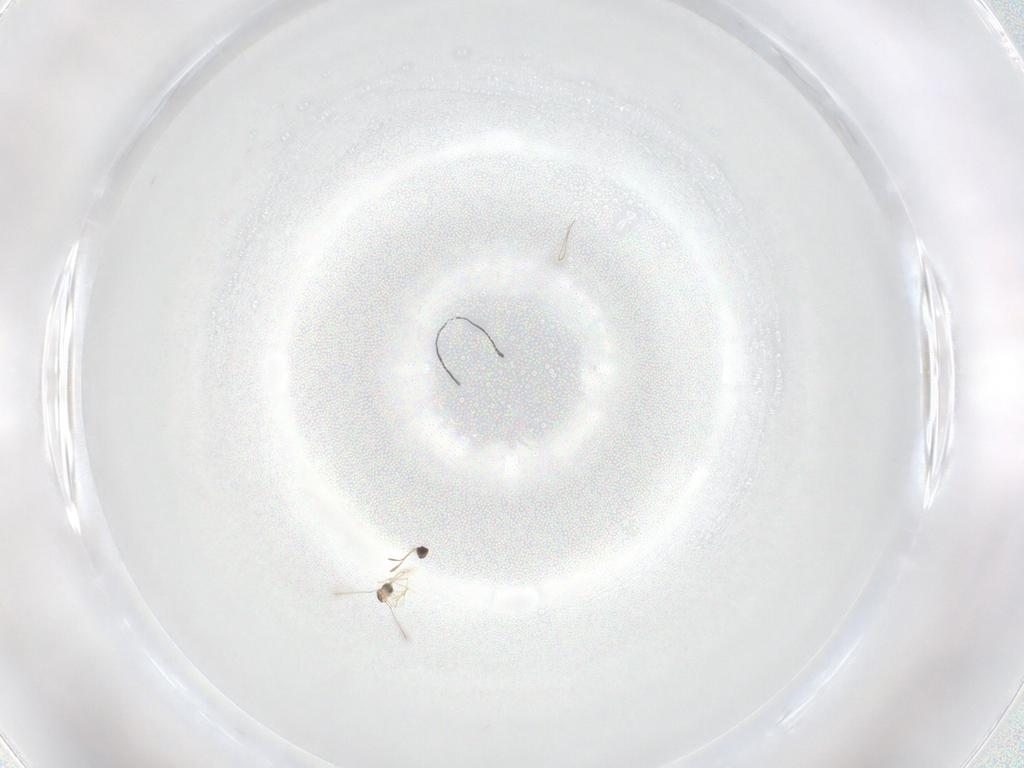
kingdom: Animalia
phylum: Arthropoda
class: Insecta
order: Hymenoptera
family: Mymaridae
